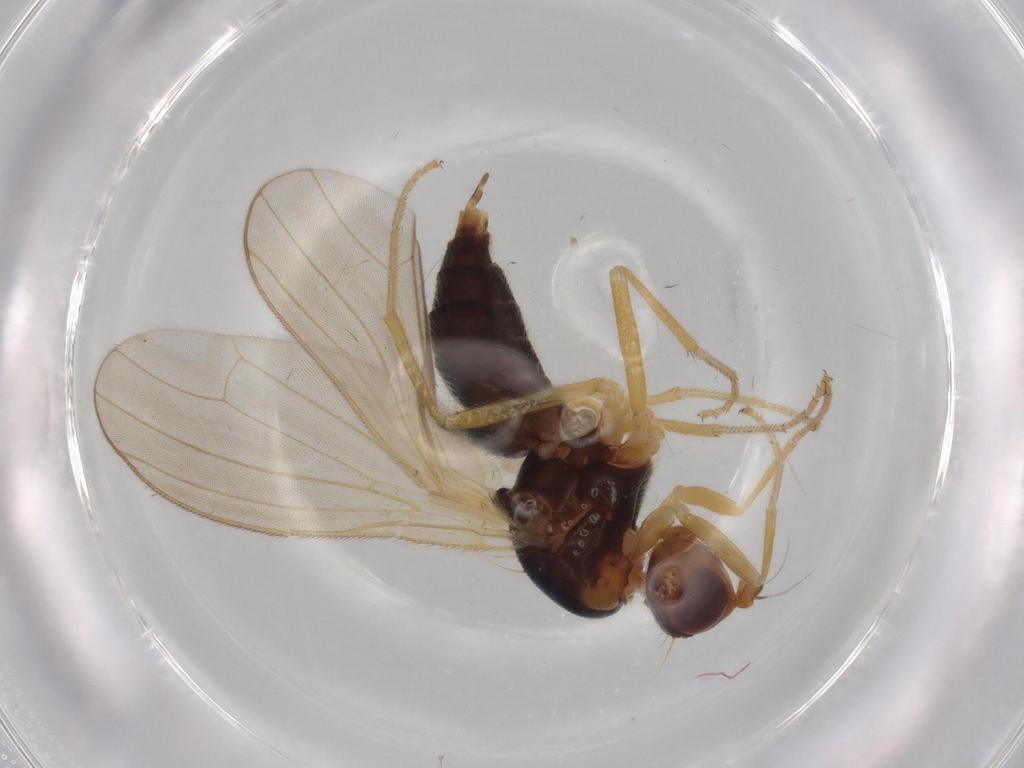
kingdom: Animalia
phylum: Arthropoda
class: Insecta
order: Diptera
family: Psilidae
